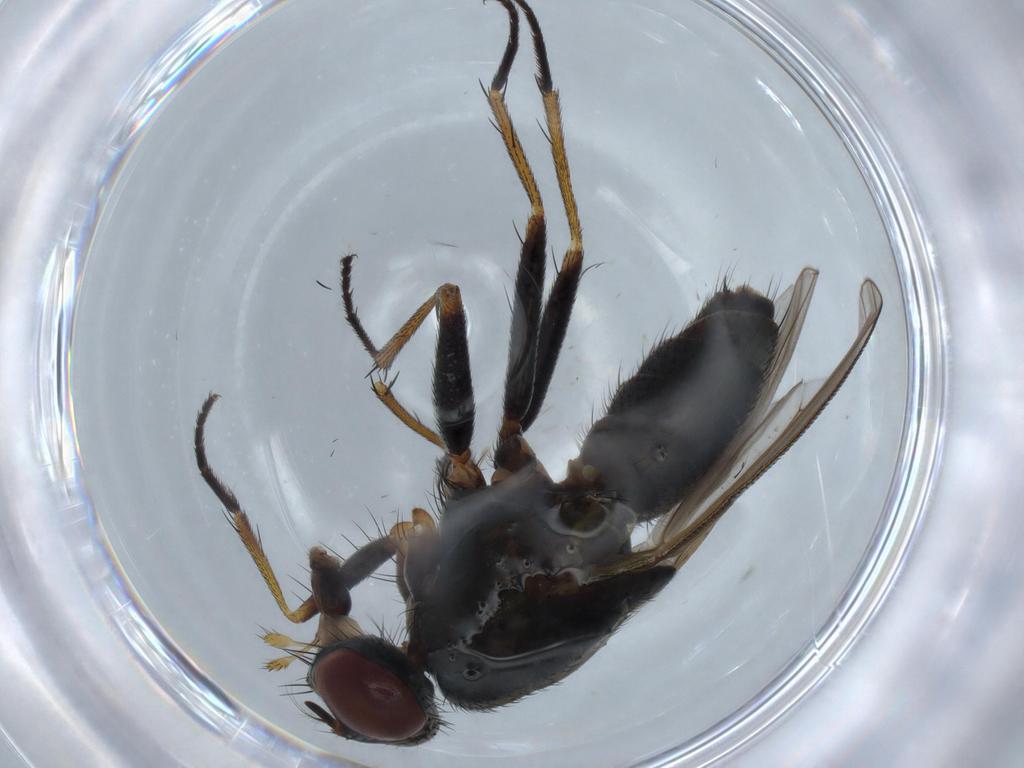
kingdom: Animalia
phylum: Arthropoda
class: Insecta
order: Diptera
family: Muscidae
